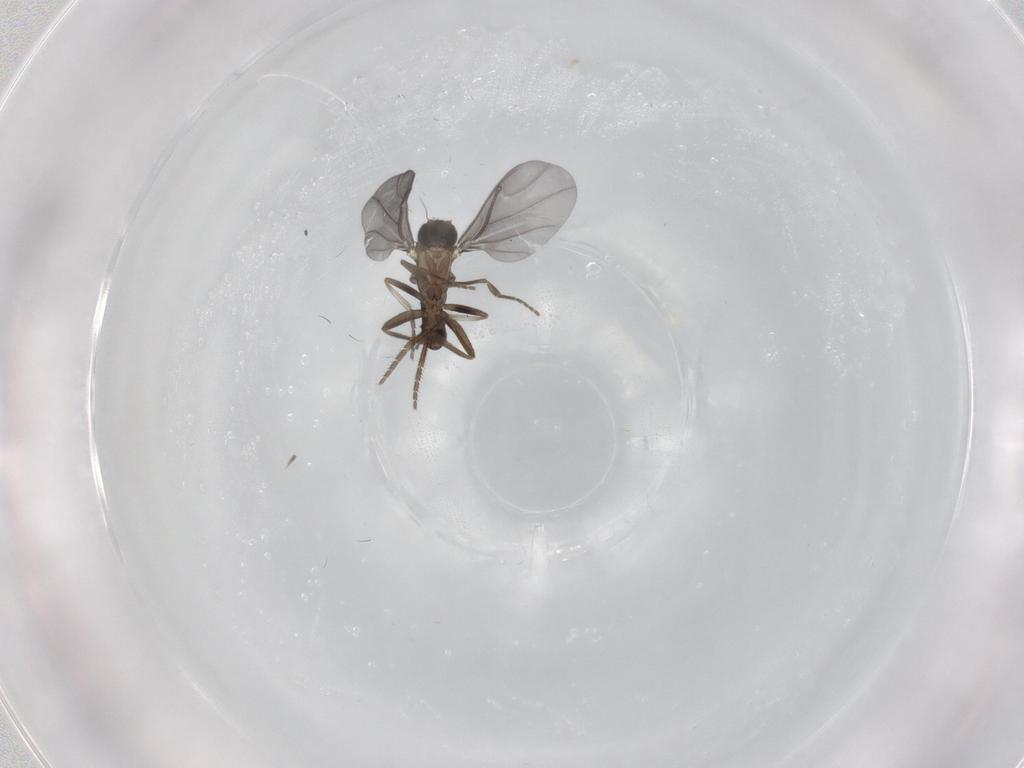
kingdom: Animalia
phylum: Arthropoda
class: Insecta
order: Diptera
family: Phoridae
